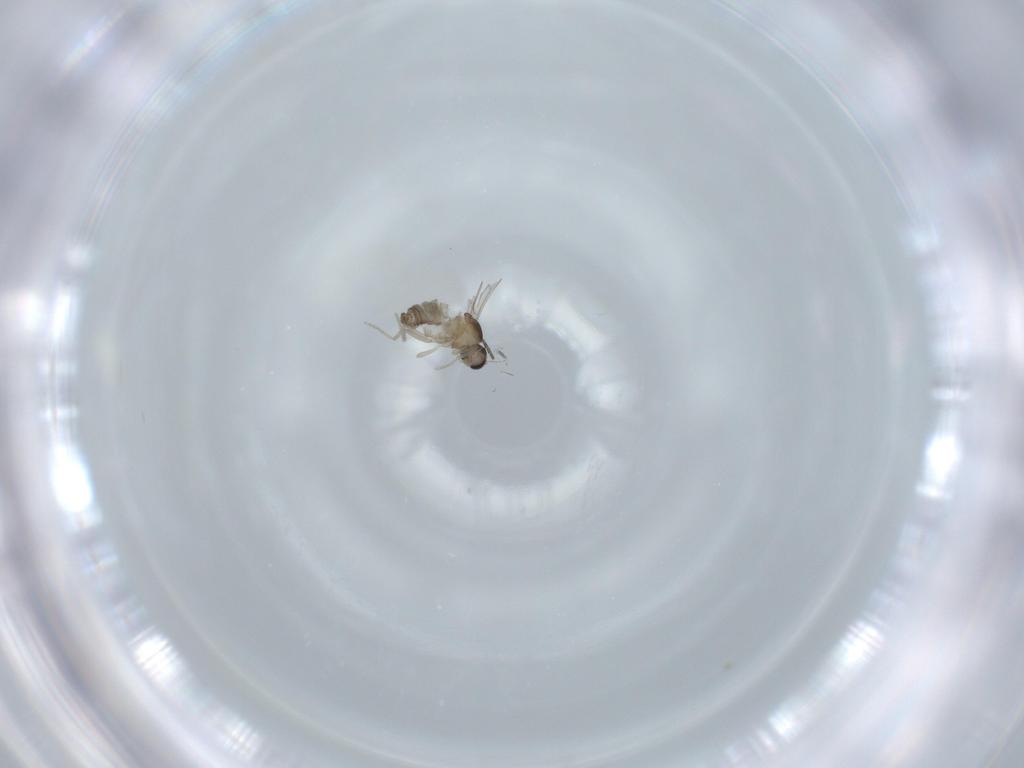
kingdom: Animalia
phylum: Arthropoda
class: Insecta
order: Diptera
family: Cecidomyiidae
